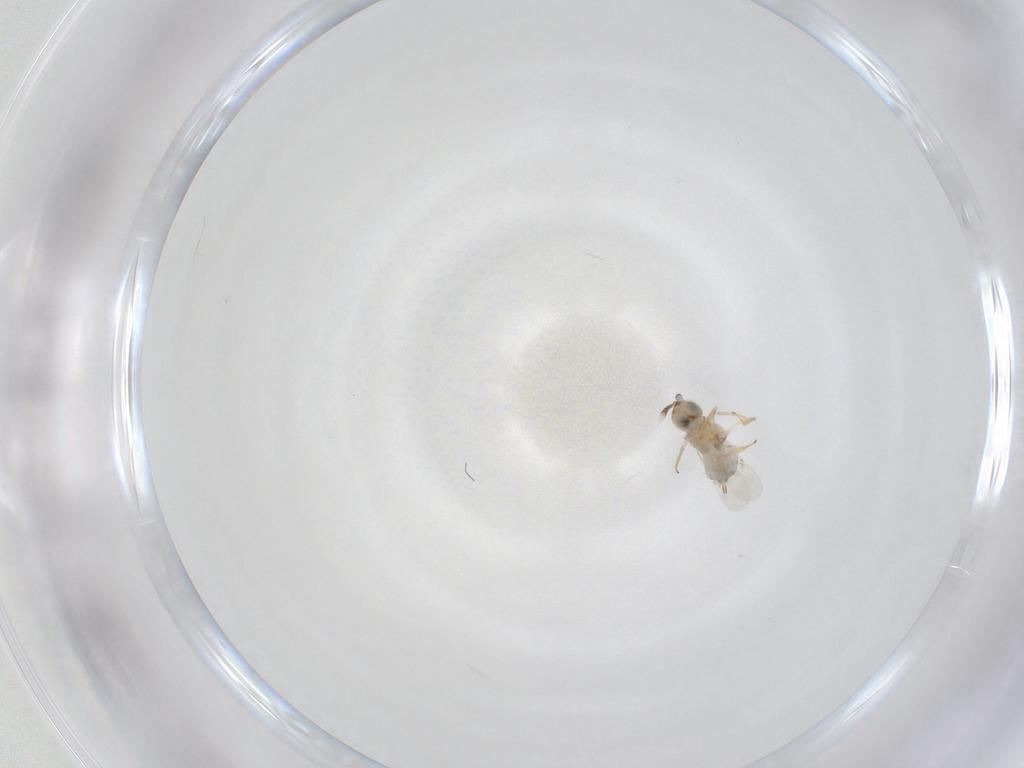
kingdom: Animalia
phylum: Arthropoda
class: Insecta
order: Hymenoptera
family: Encyrtidae
